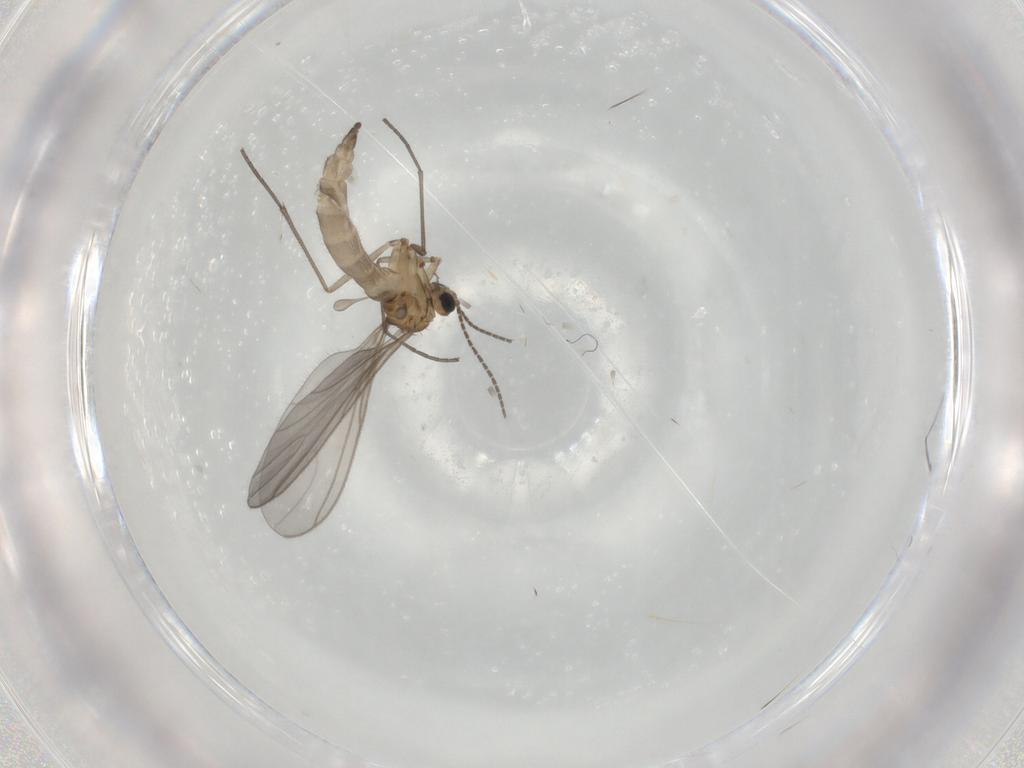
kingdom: Animalia
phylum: Arthropoda
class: Insecta
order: Diptera
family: Sciaridae
